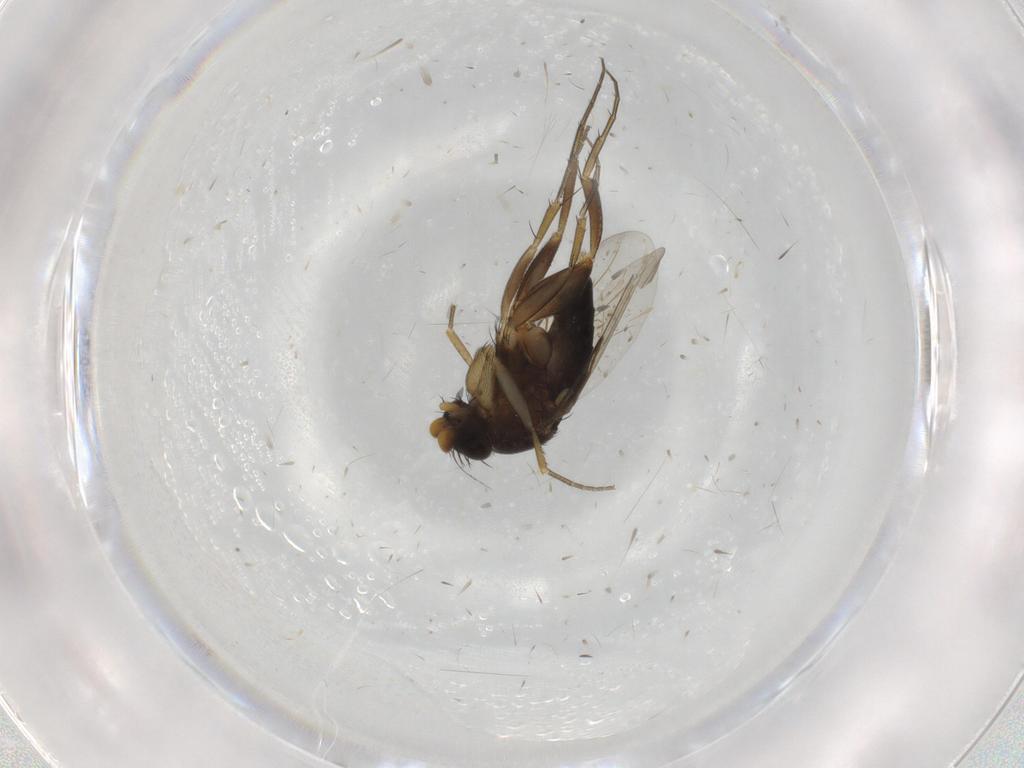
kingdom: Animalia
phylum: Arthropoda
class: Insecta
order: Diptera
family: Phoridae
